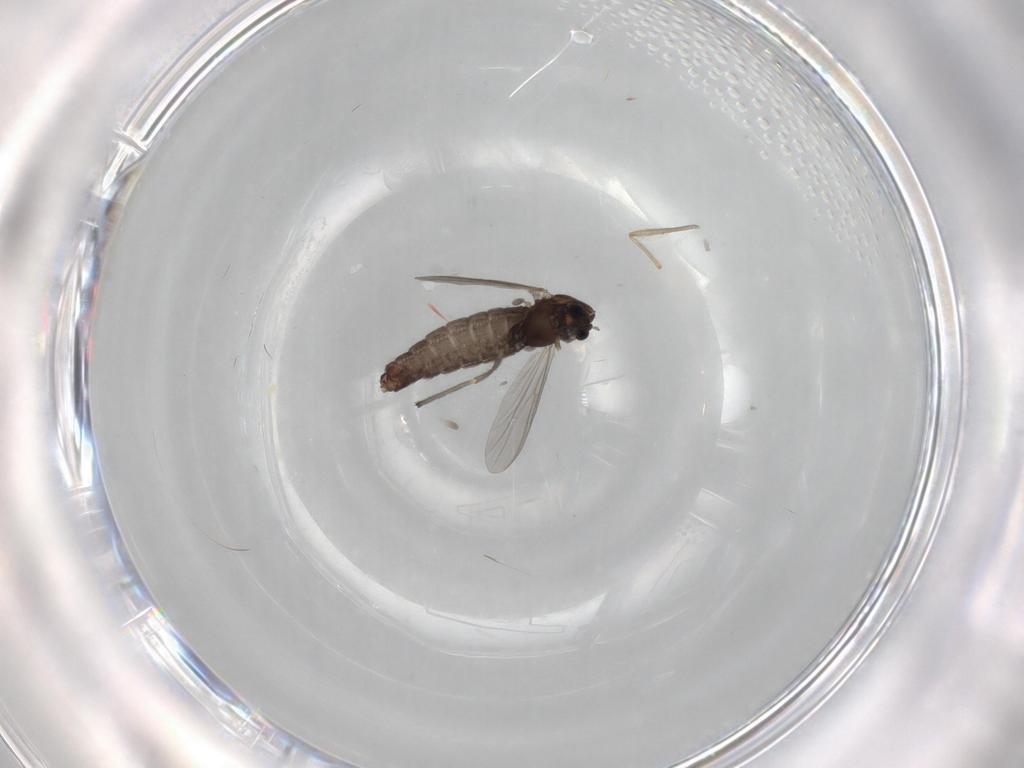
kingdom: Animalia
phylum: Arthropoda
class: Insecta
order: Diptera
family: Chironomidae
